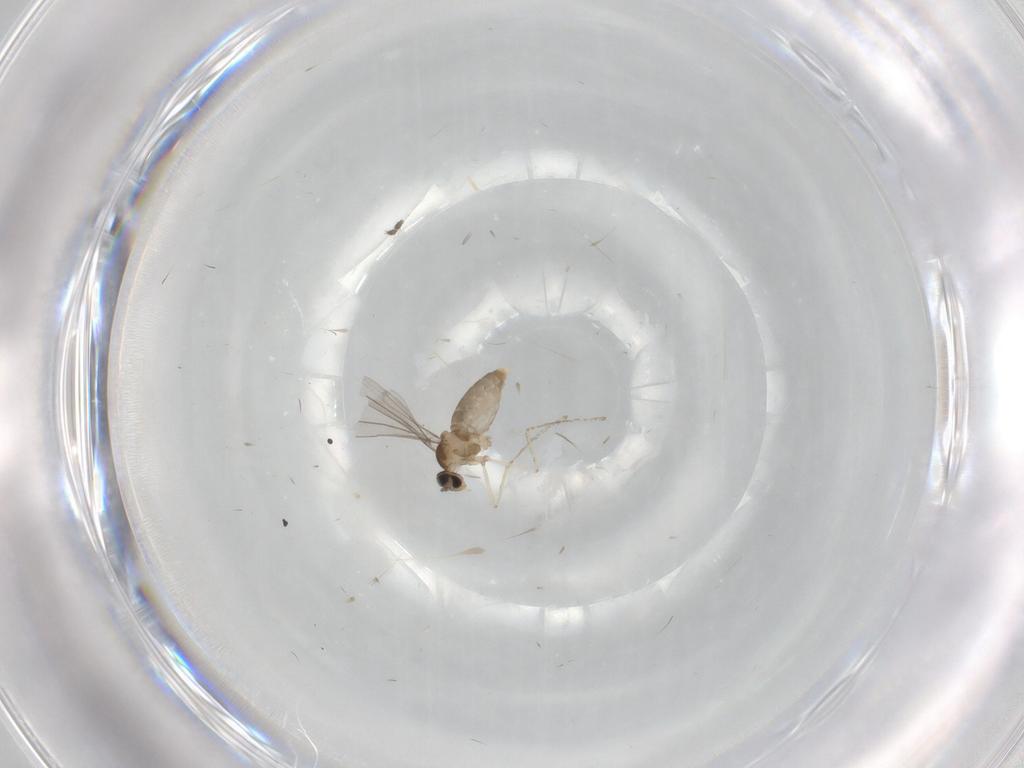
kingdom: Animalia
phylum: Arthropoda
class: Insecta
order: Diptera
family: Limoniidae
